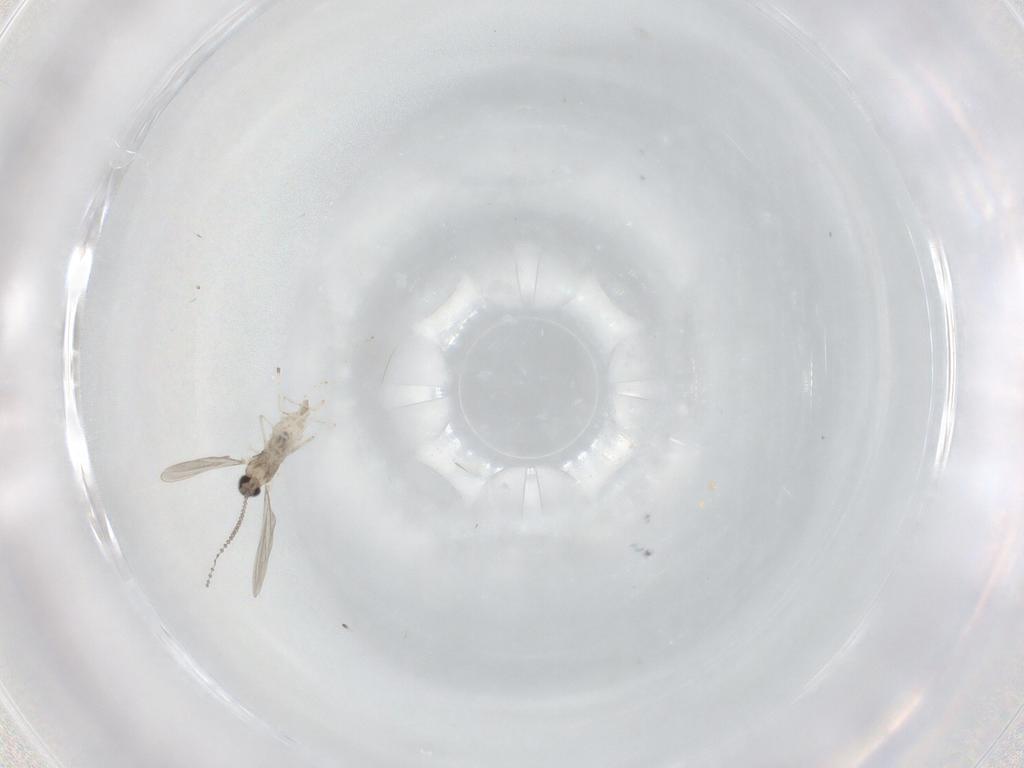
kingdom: Animalia
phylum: Arthropoda
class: Insecta
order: Diptera
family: Cecidomyiidae
